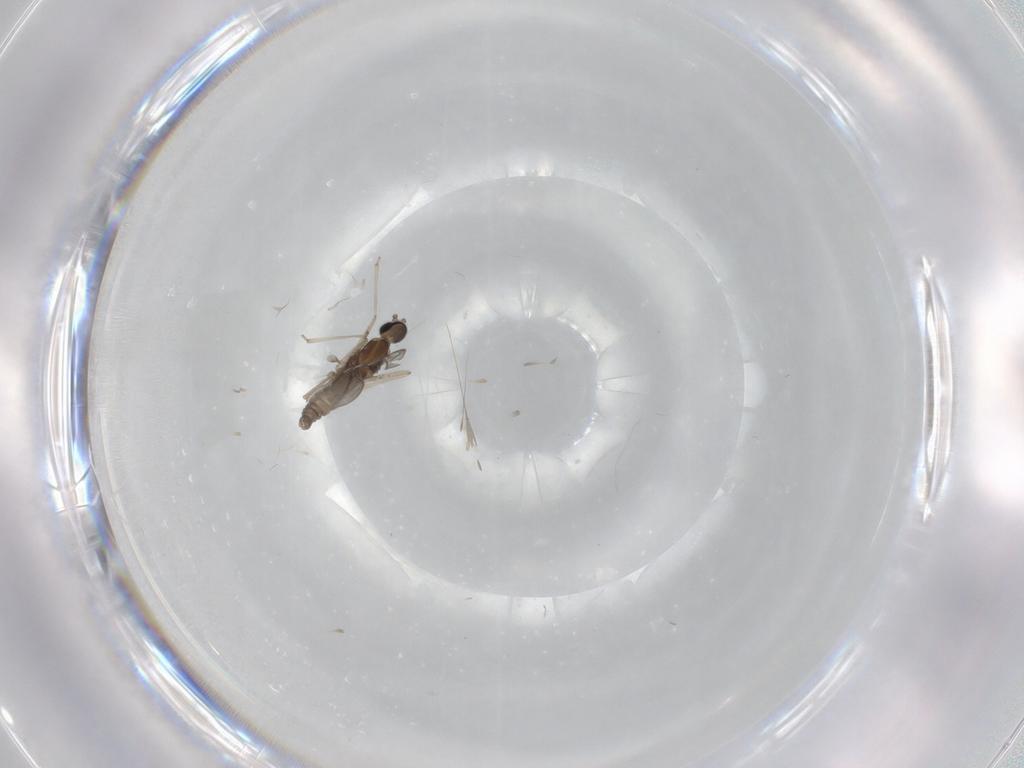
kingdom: Animalia
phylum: Arthropoda
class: Insecta
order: Diptera
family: Cecidomyiidae
